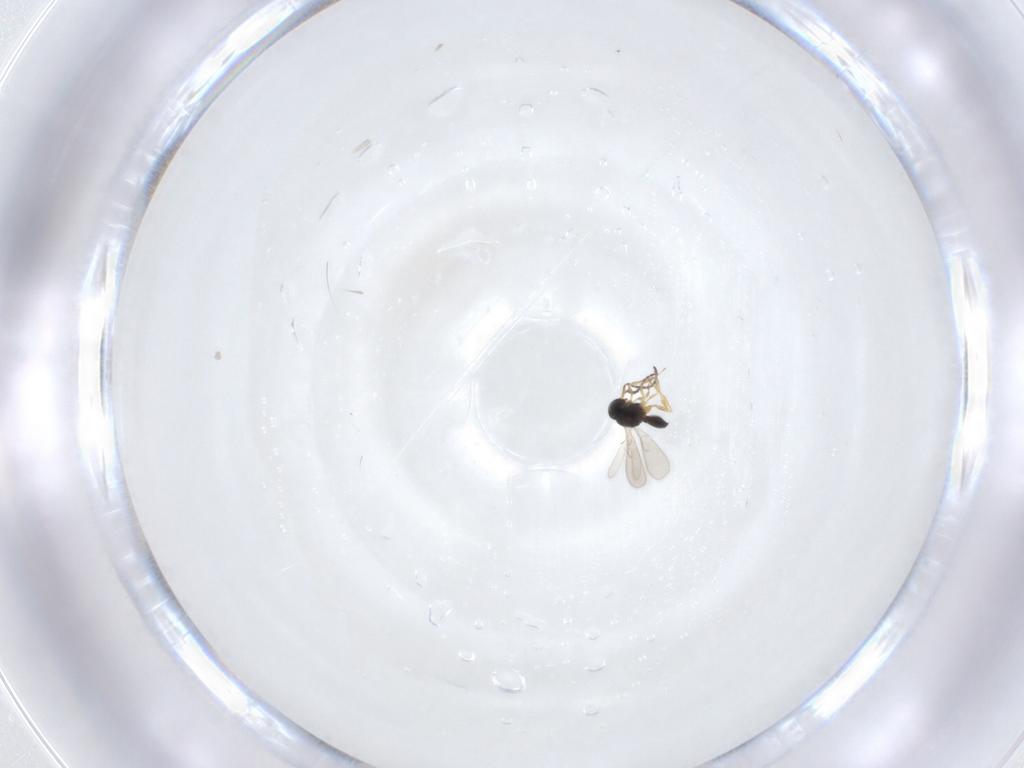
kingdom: Animalia
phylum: Arthropoda
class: Insecta
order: Hymenoptera
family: Scelionidae
